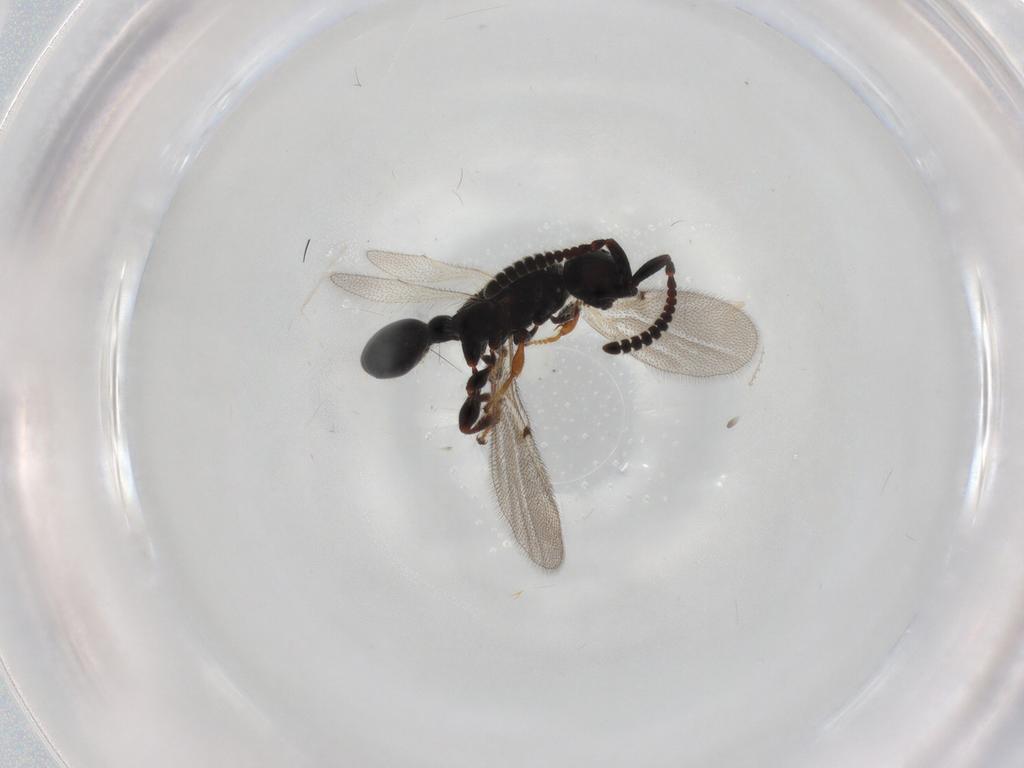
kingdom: Animalia
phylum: Arthropoda
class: Insecta
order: Hymenoptera
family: Diapriidae
